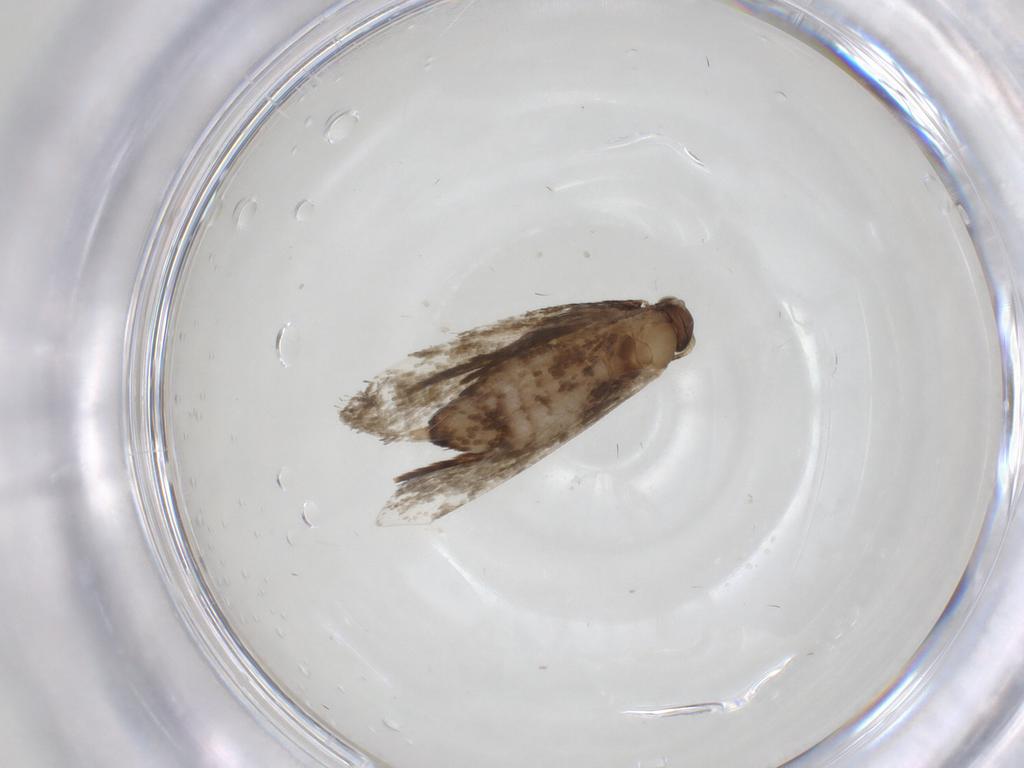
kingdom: Animalia
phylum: Arthropoda
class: Insecta
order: Lepidoptera
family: Crambidae
